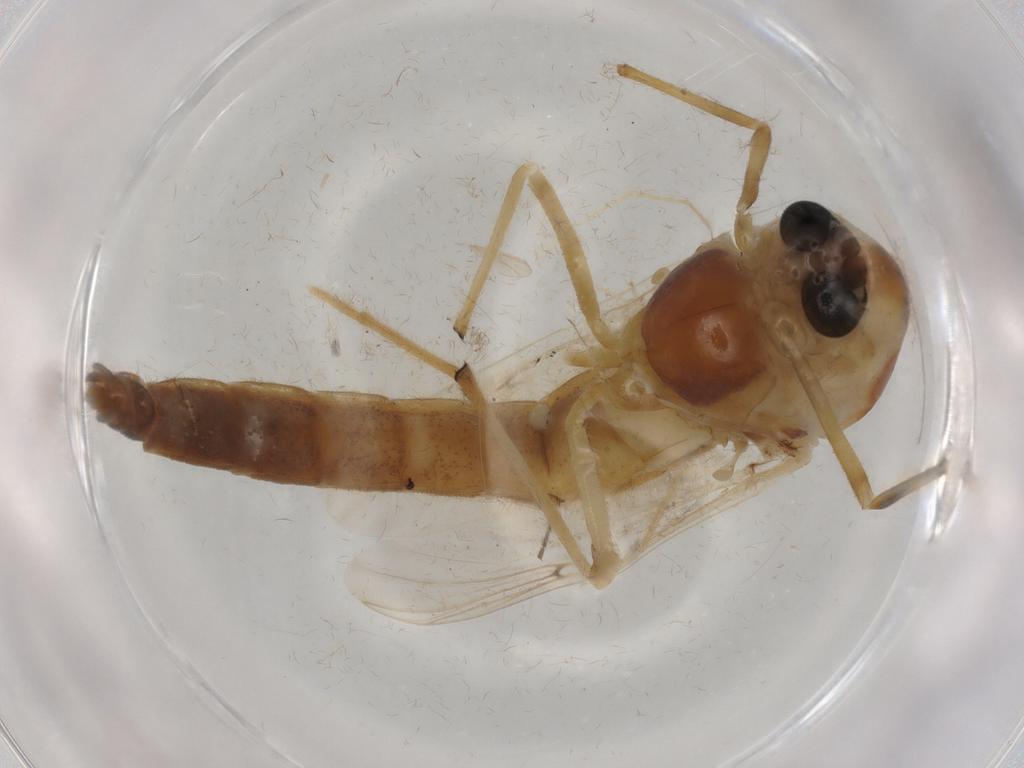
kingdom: Animalia
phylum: Arthropoda
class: Insecta
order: Diptera
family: Chironomidae
